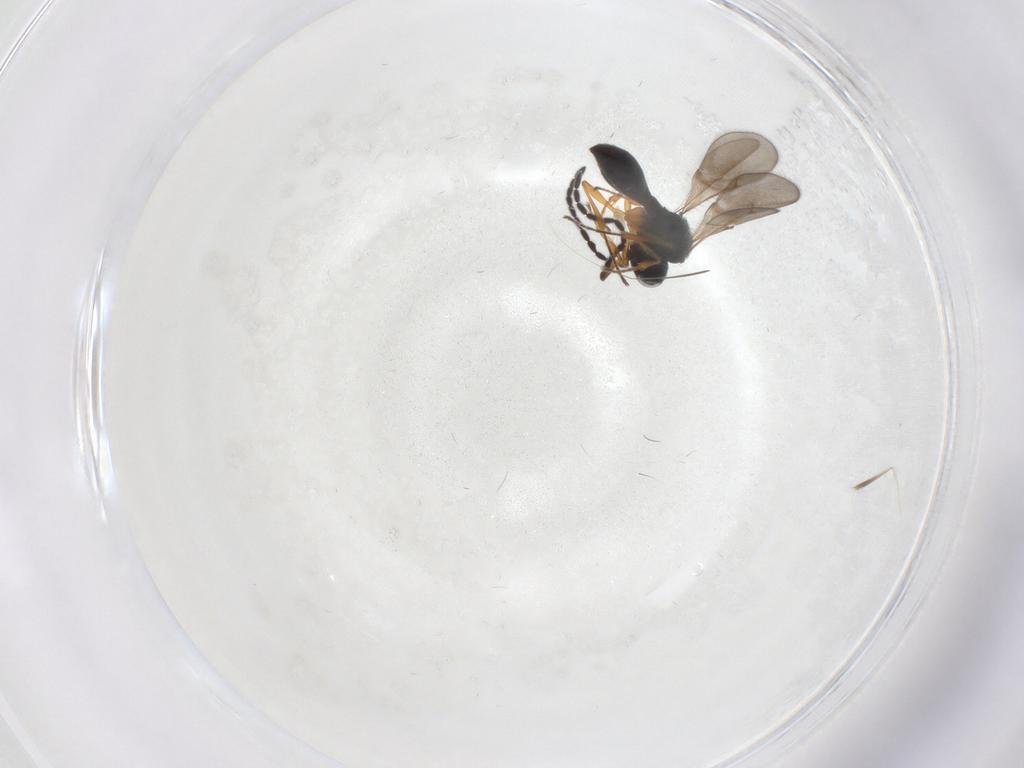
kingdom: Animalia
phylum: Arthropoda
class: Insecta
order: Hymenoptera
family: Scelionidae
